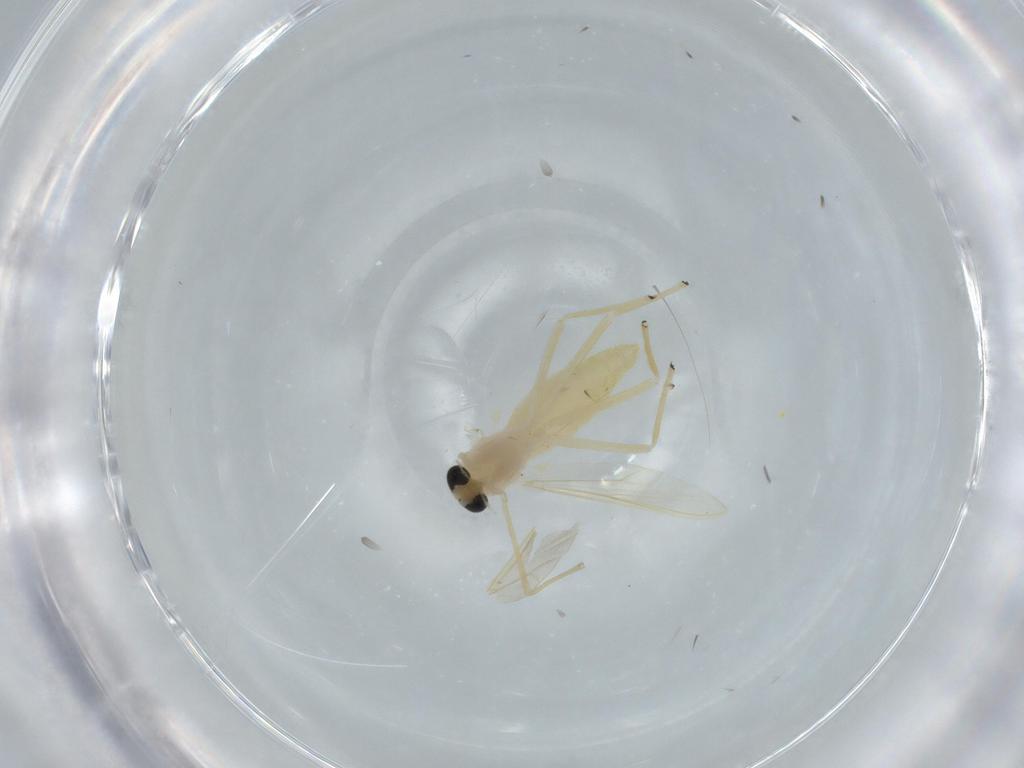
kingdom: Animalia
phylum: Arthropoda
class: Insecta
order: Diptera
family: Chironomidae
